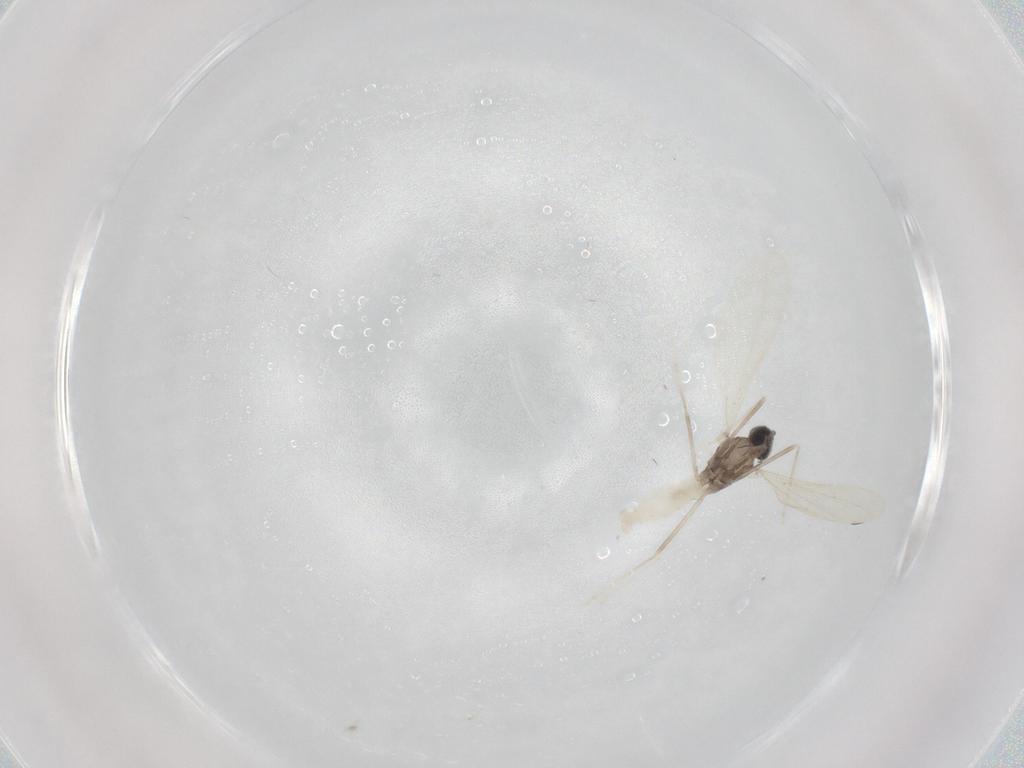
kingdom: Animalia
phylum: Arthropoda
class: Insecta
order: Diptera
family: Cecidomyiidae
